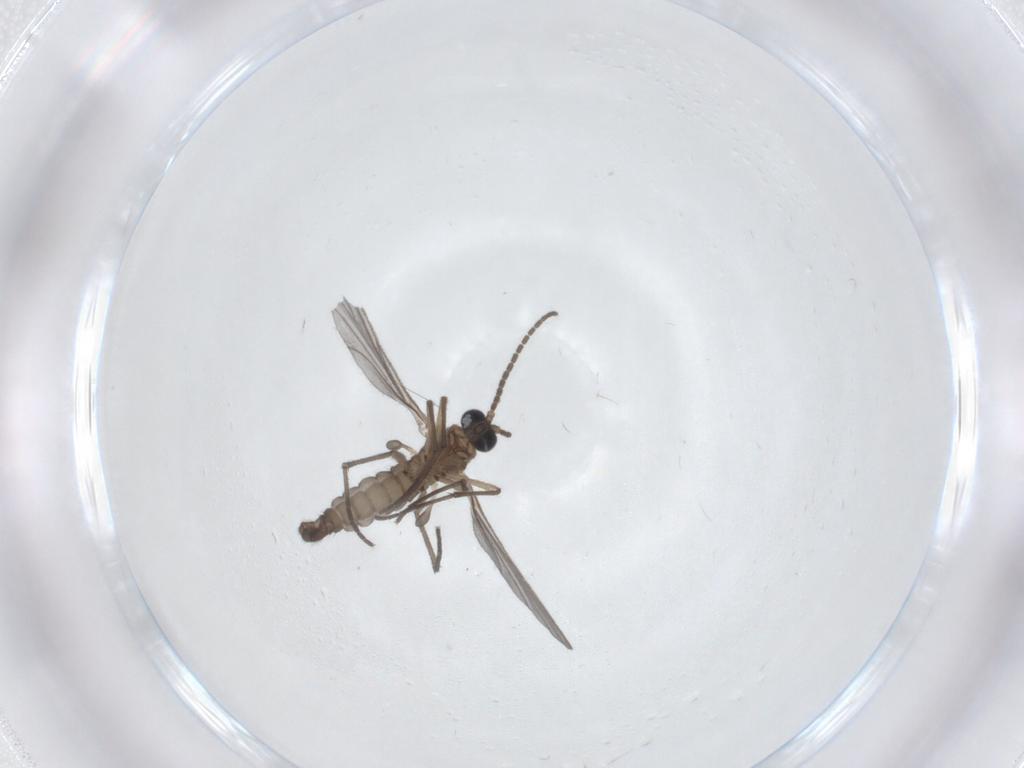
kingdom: Animalia
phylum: Arthropoda
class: Insecta
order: Diptera
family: Sciaridae
